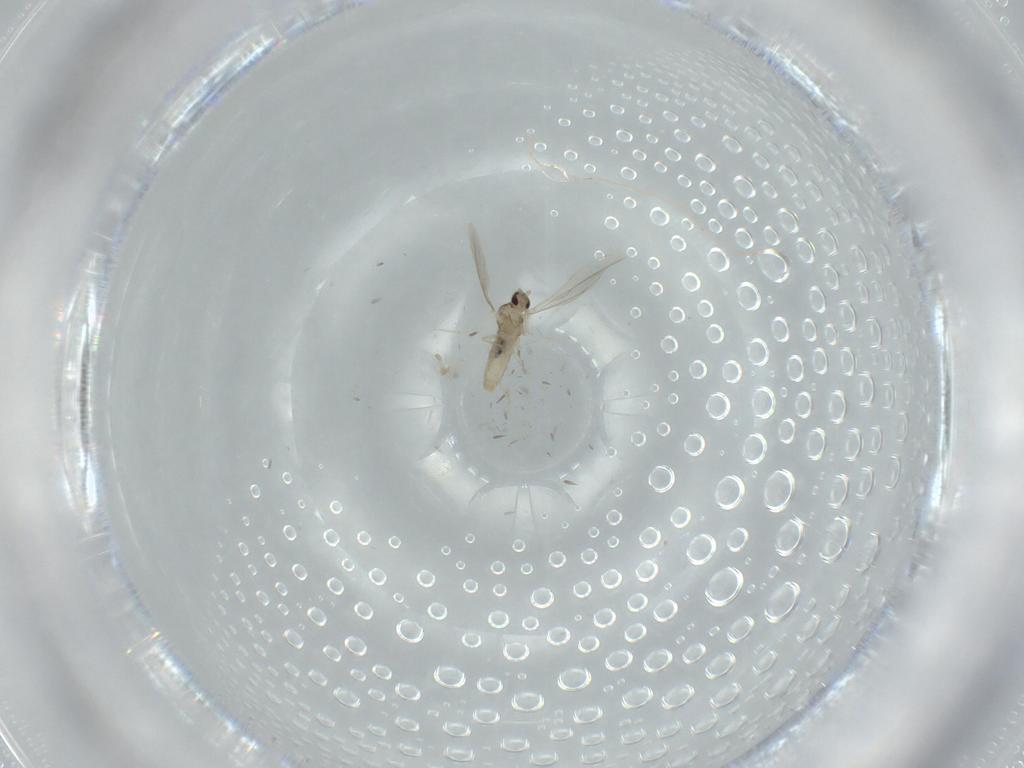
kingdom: Animalia
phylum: Arthropoda
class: Insecta
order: Diptera
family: Cecidomyiidae
